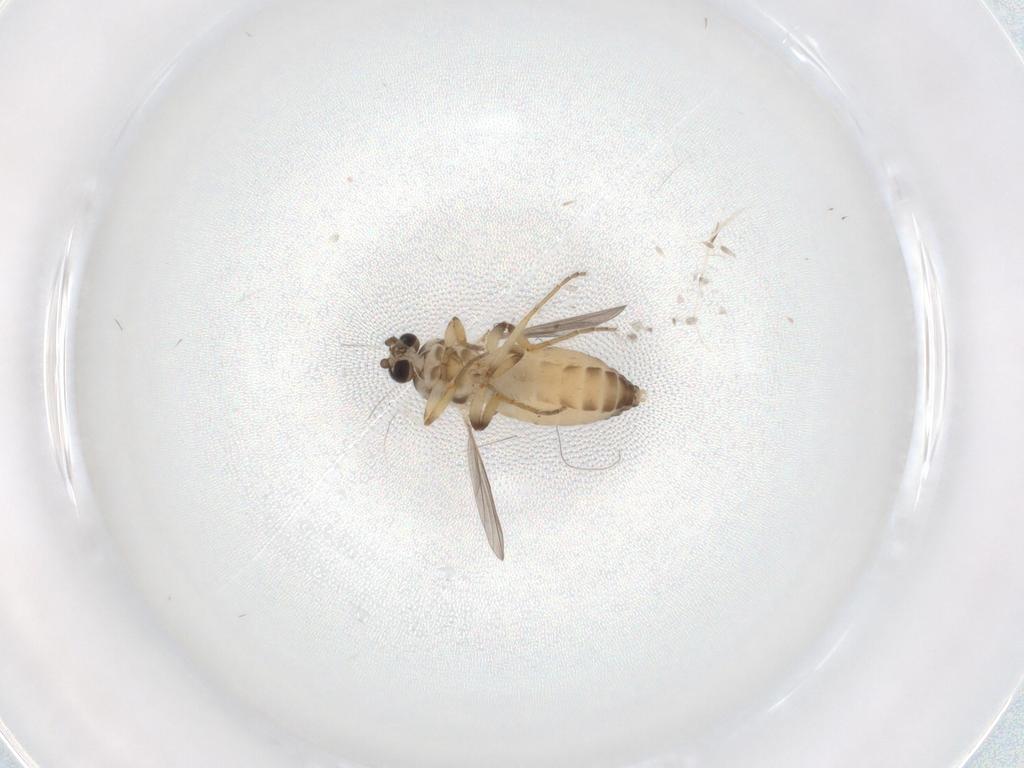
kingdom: Animalia
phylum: Arthropoda
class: Insecta
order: Diptera
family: Ceratopogonidae
